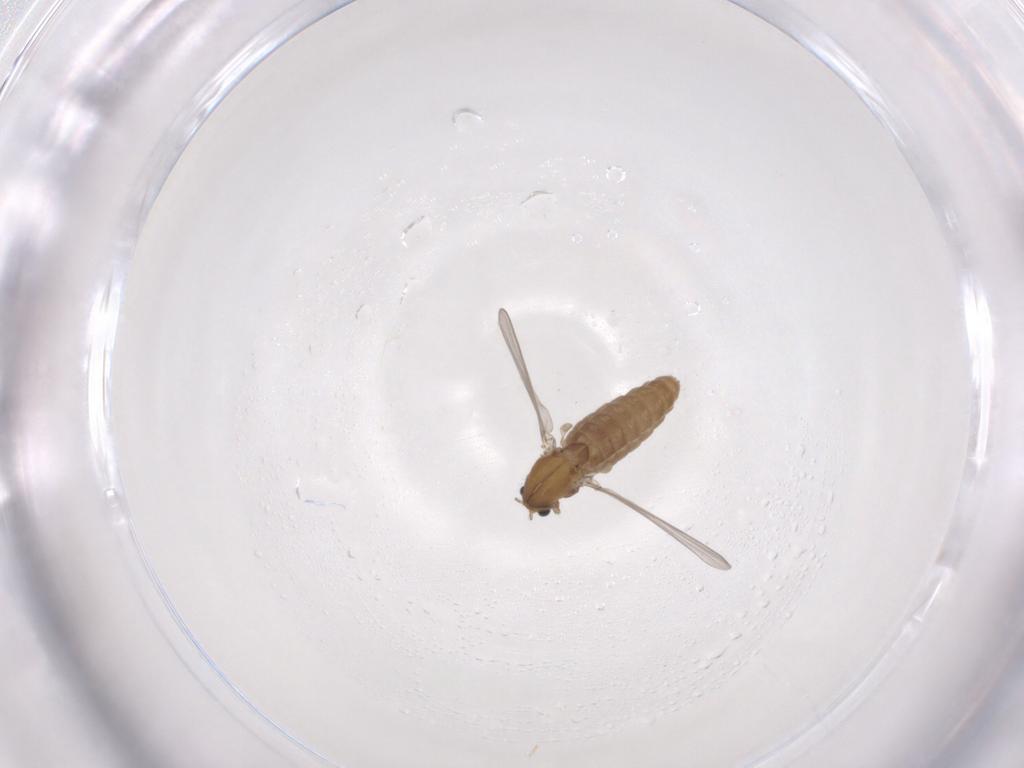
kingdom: Animalia
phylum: Arthropoda
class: Insecta
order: Diptera
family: Chironomidae
